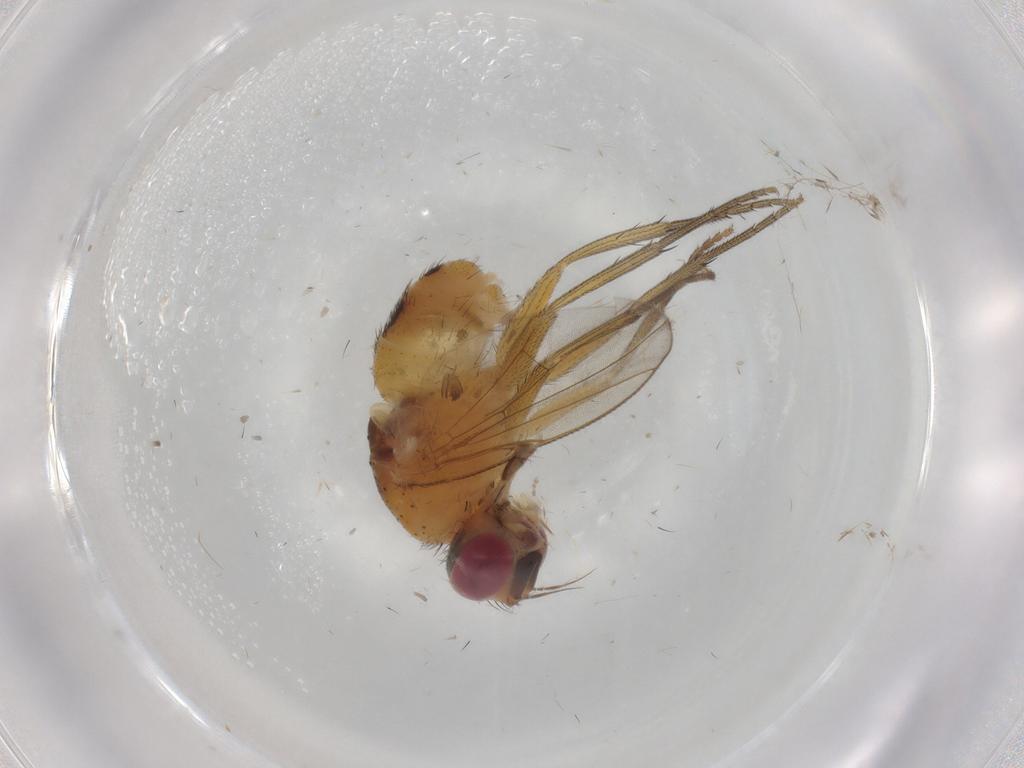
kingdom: Animalia
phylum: Arthropoda
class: Insecta
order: Diptera
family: Muscidae
